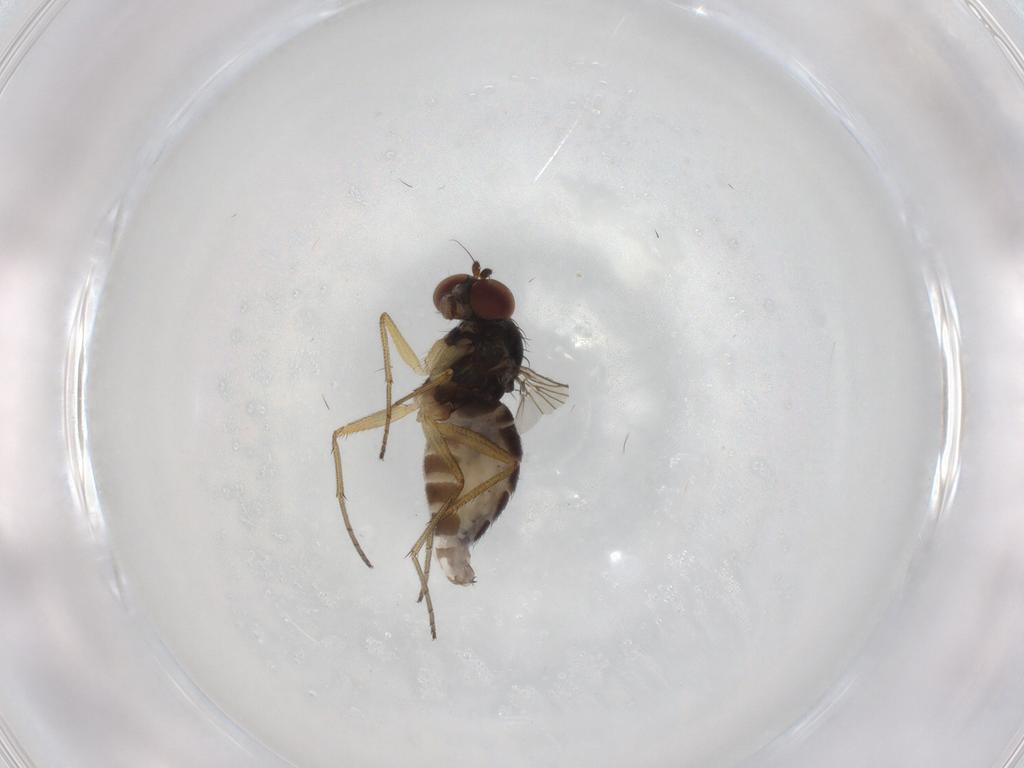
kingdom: Animalia
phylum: Arthropoda
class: Insecta
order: Diptera
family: Dolichopodidae
